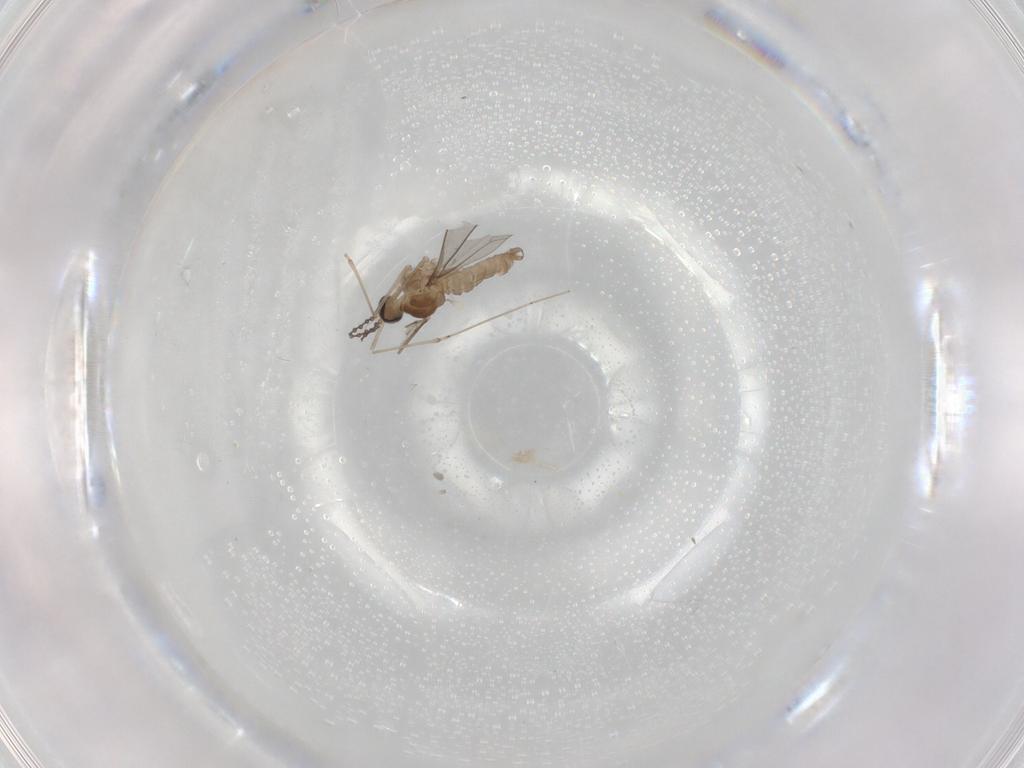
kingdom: Animalia
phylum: Arthropoda
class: Insecta
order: Diptera
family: Cecidomyiidae
